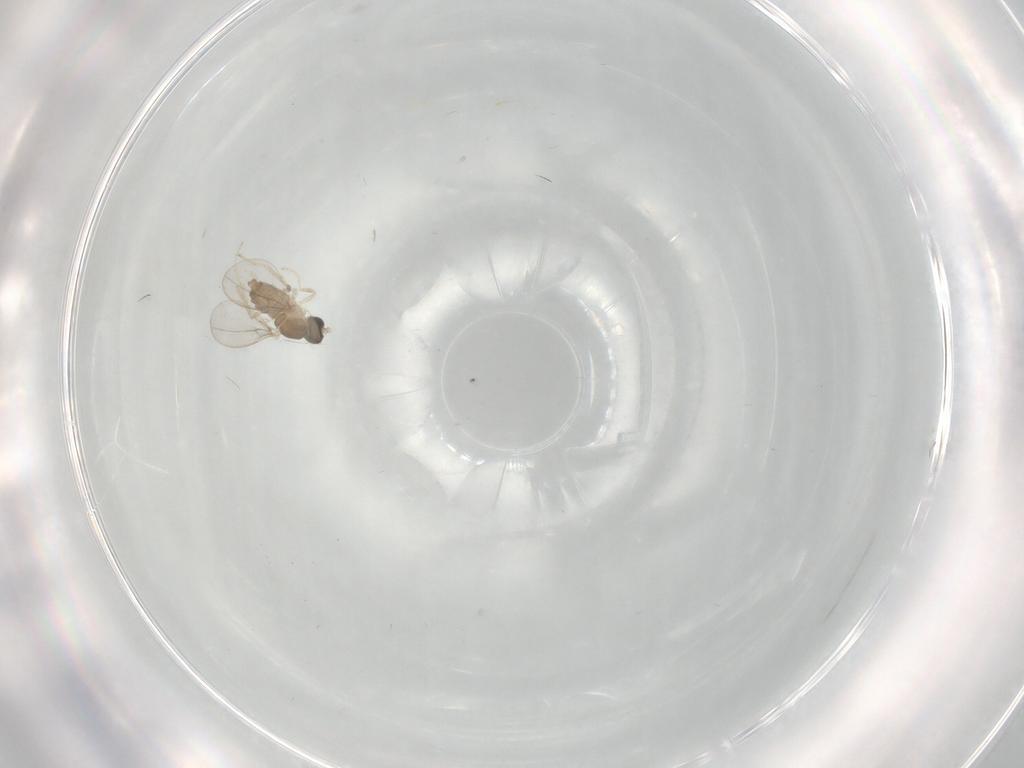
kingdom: Animalia
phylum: Arthropoda
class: Insecta
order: Diptera
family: Cecidomyiidae
